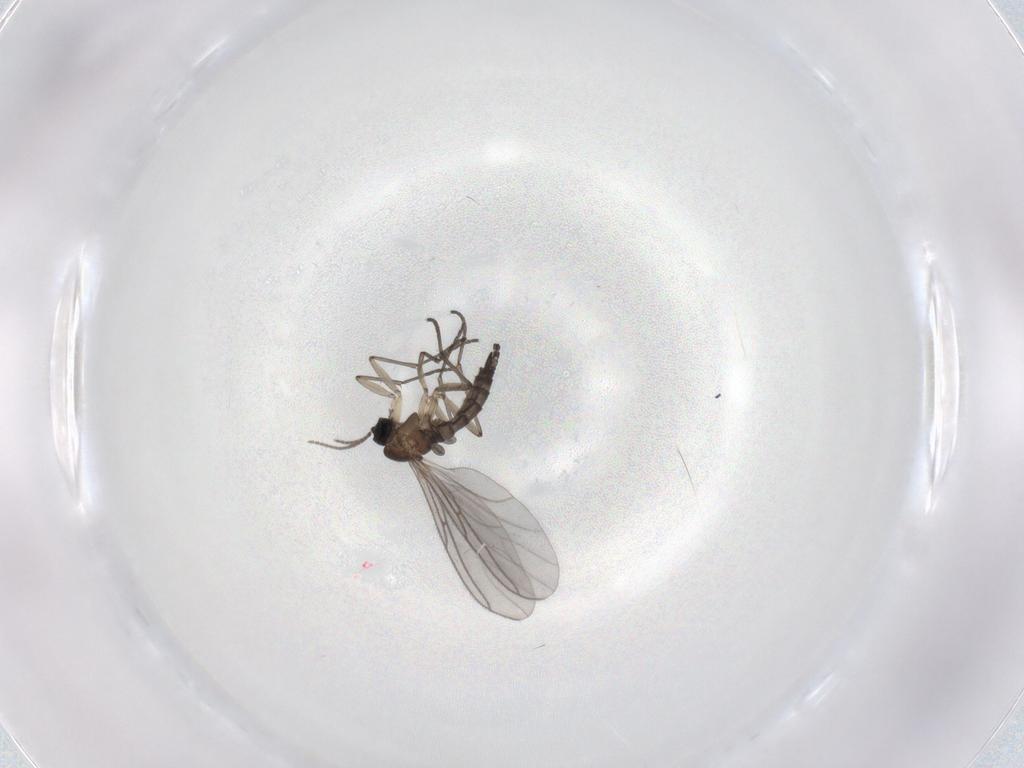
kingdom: Animalia
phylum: Arthropoda
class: Insecta
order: Diptera
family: Sciaridae
